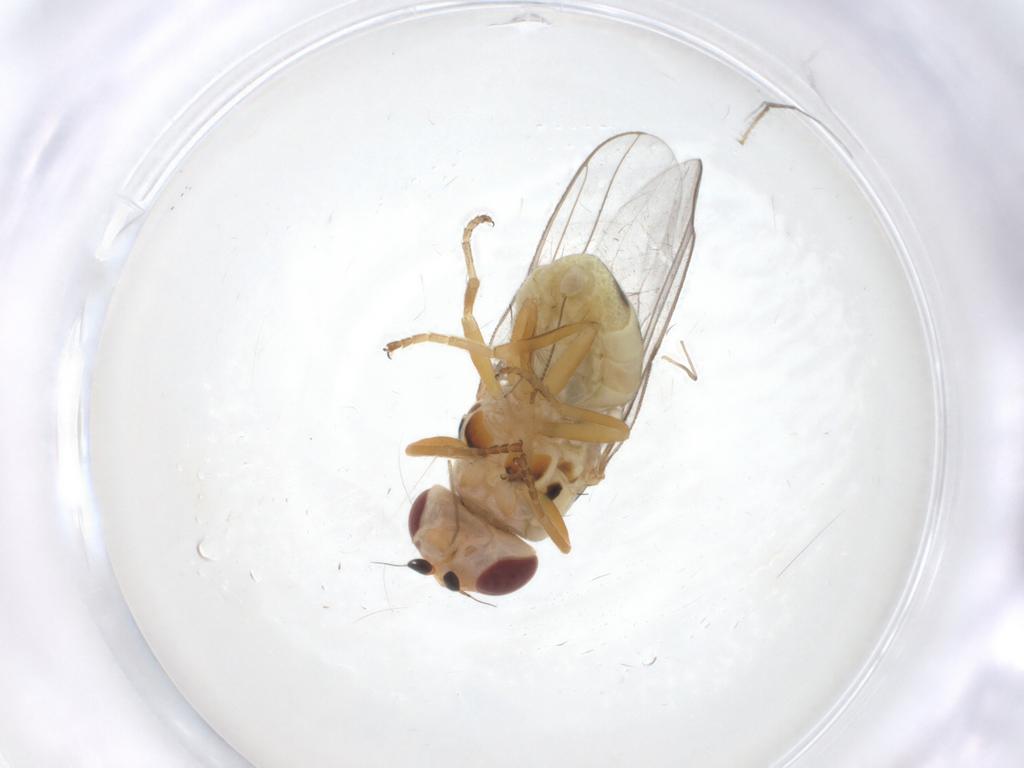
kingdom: Animalia
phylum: Arthropoda
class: Insecta
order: Diptera
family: Chloropidae
